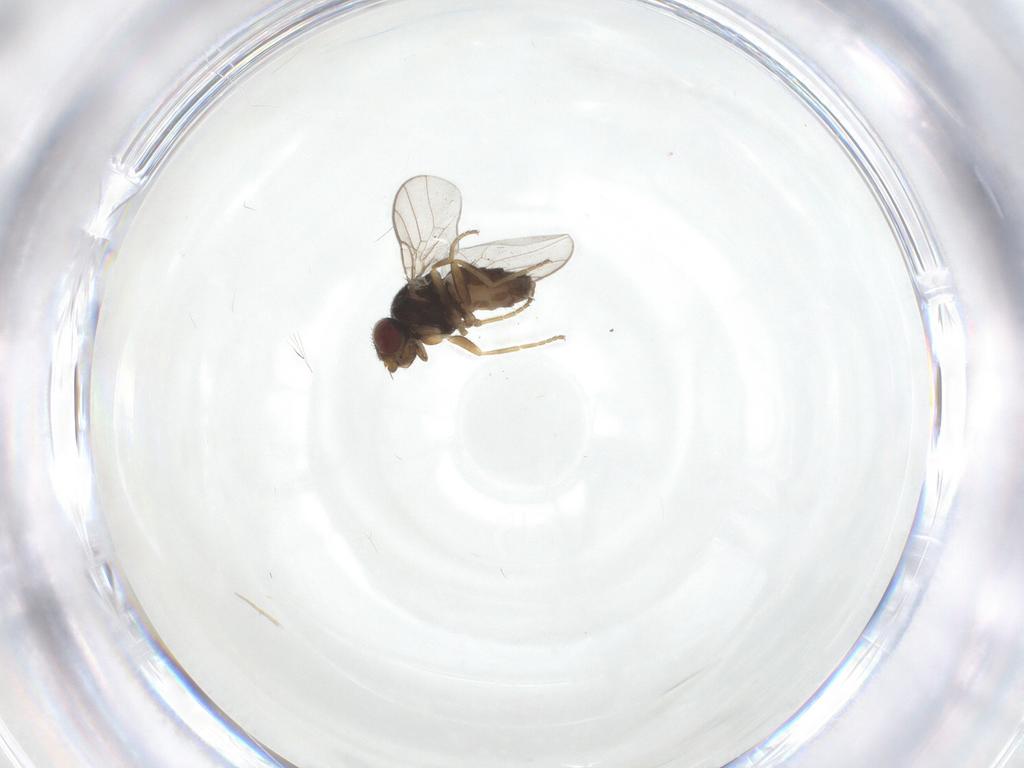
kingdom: Animalia
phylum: Arthropoda
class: Insecta
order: Diptera
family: Chloropidae
